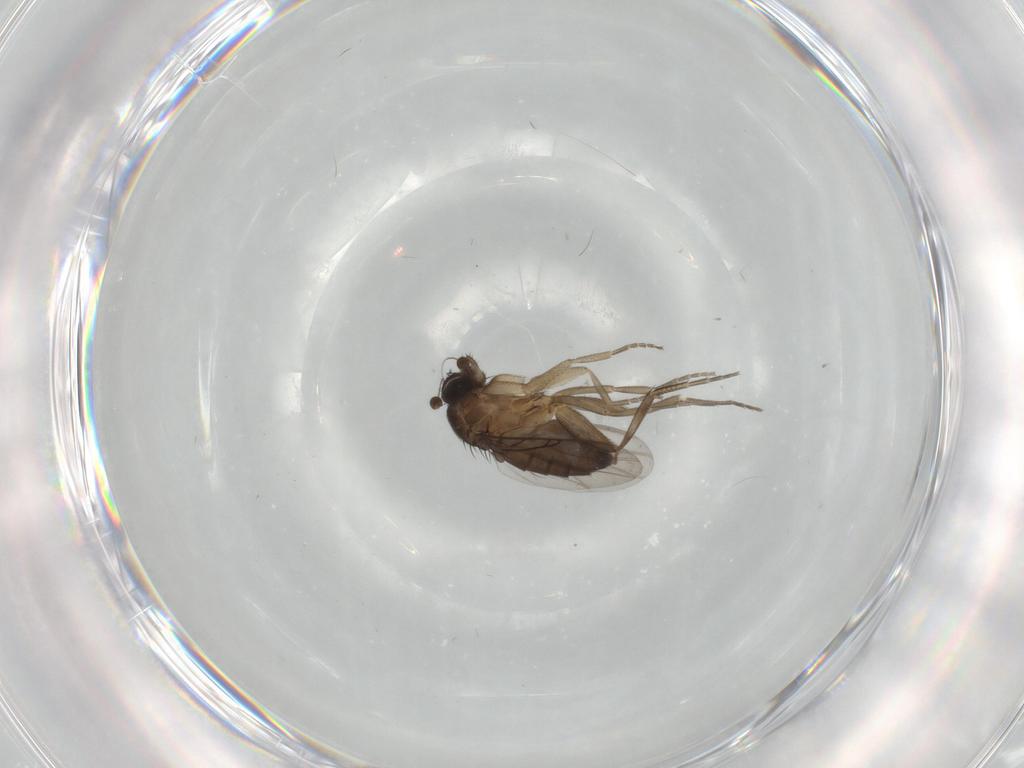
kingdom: Animalia
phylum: Arthropoda
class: Insecta
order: Diptera
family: Phoridae
